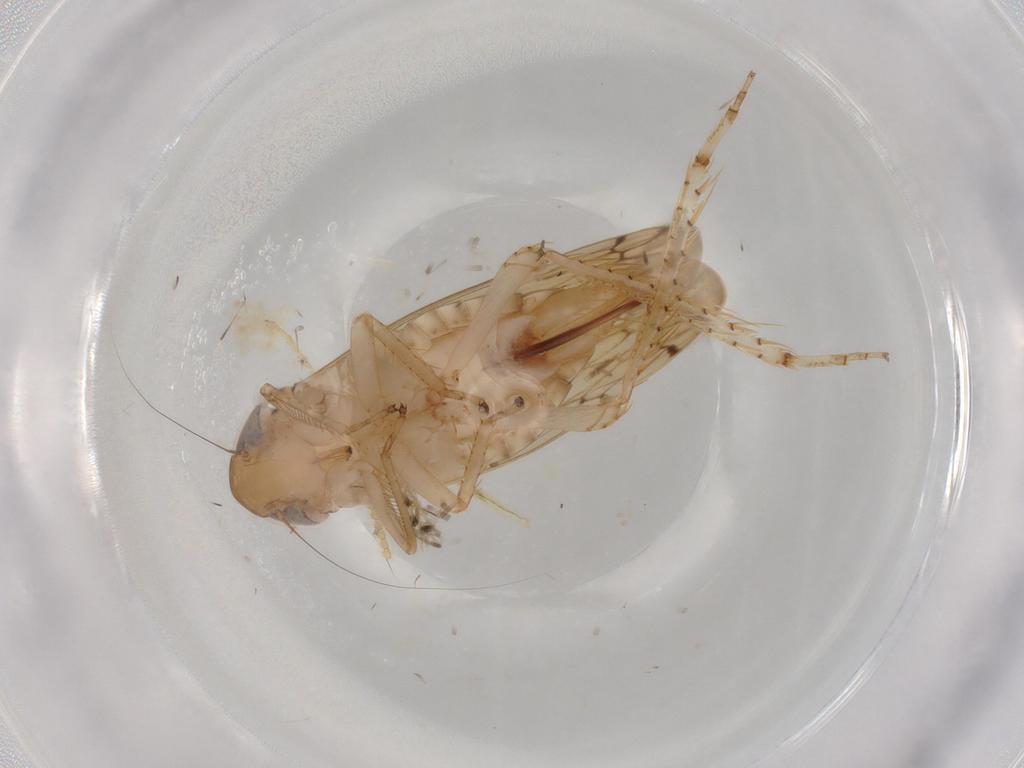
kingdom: Animalia
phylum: Arthropoda
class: Insecta
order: Hemiptera
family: Cicadellidae
